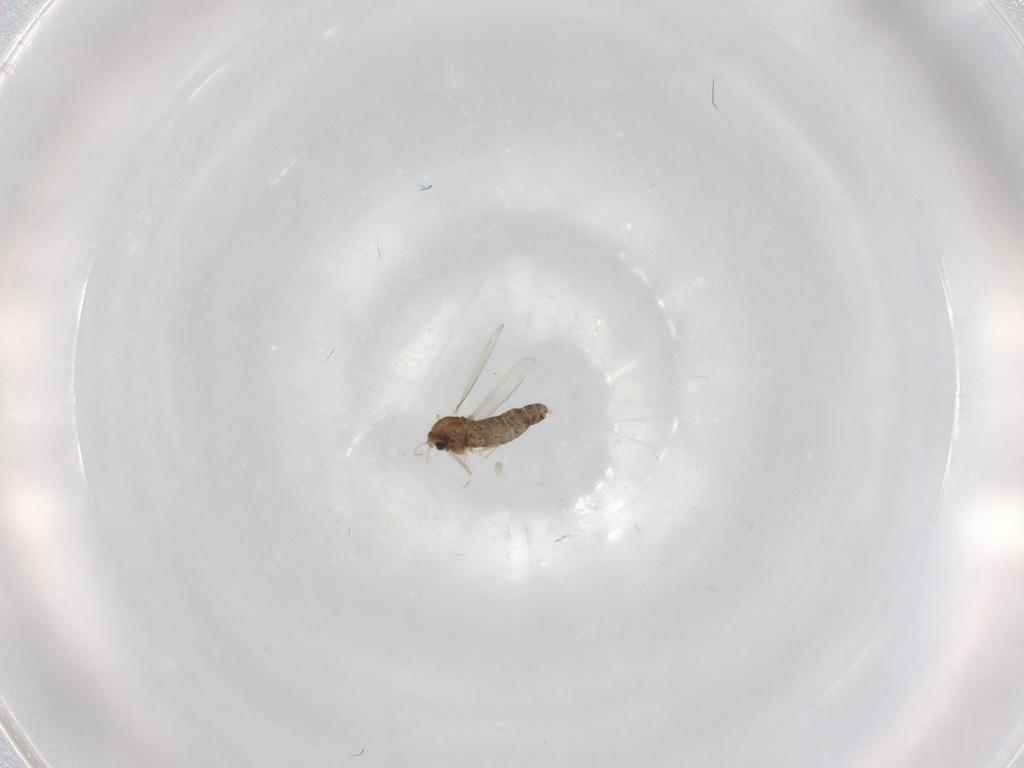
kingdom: Animalia
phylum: Arthropoda
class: Insecta
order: Diptera
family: Chironomidae
